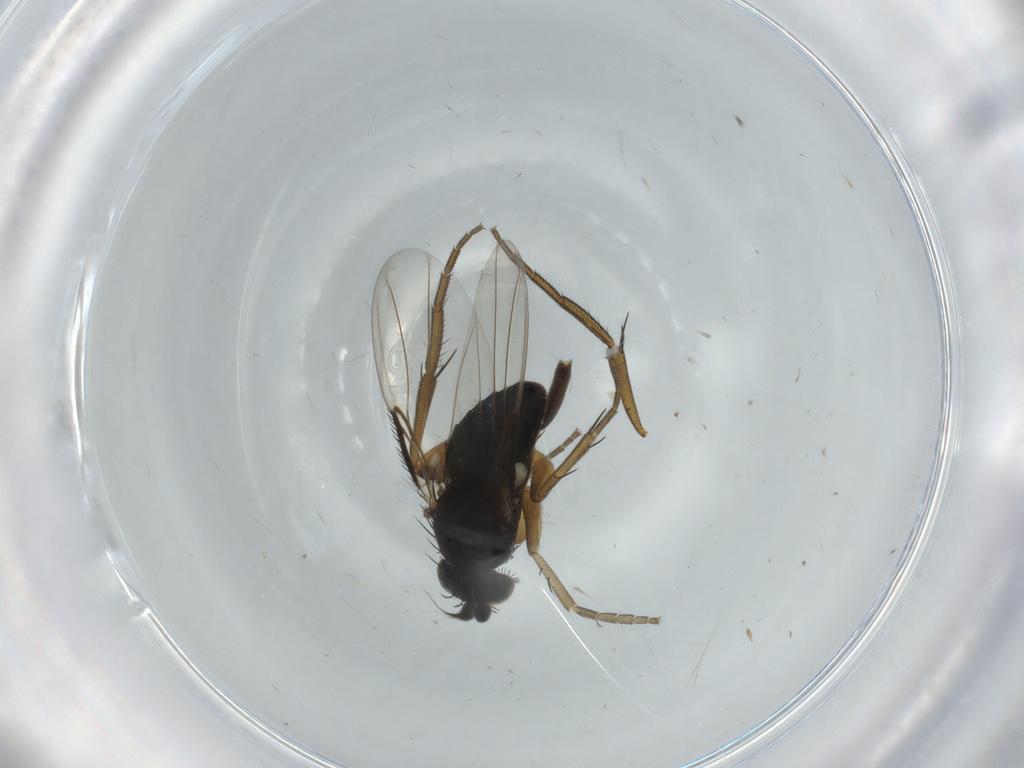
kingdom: Animalia
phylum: Arthropoda
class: Insecta
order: Diptera
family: Phoridae
